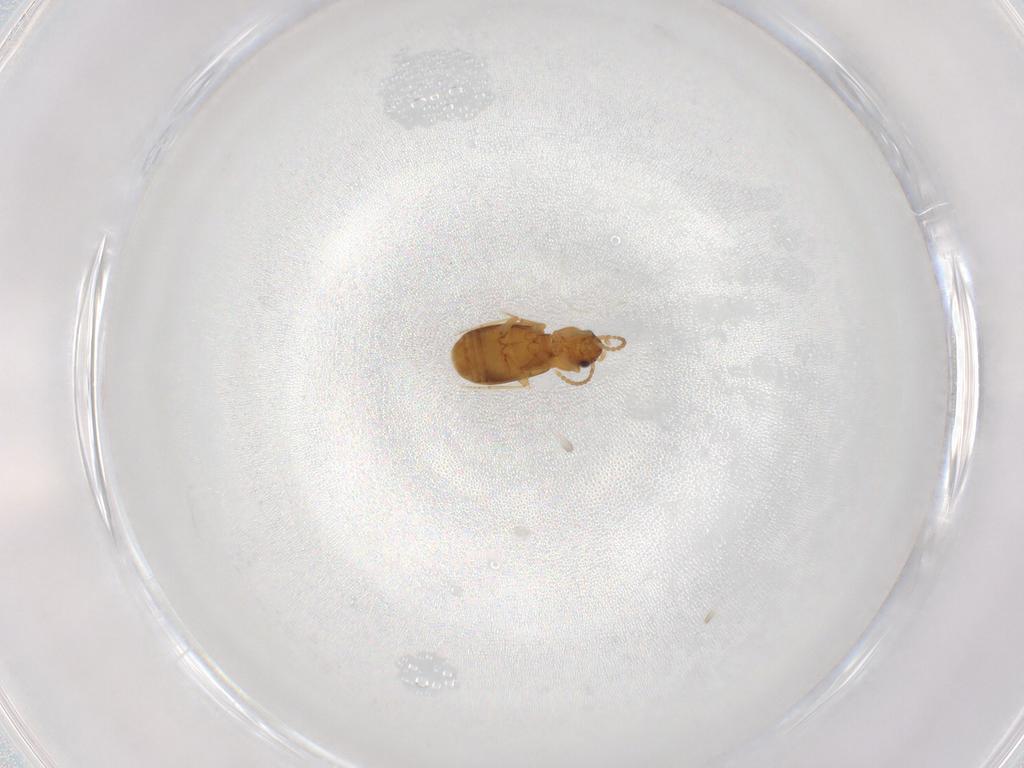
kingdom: Animalia
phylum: Arthropoda
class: Insecta
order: Coleoptera
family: Carabidae
